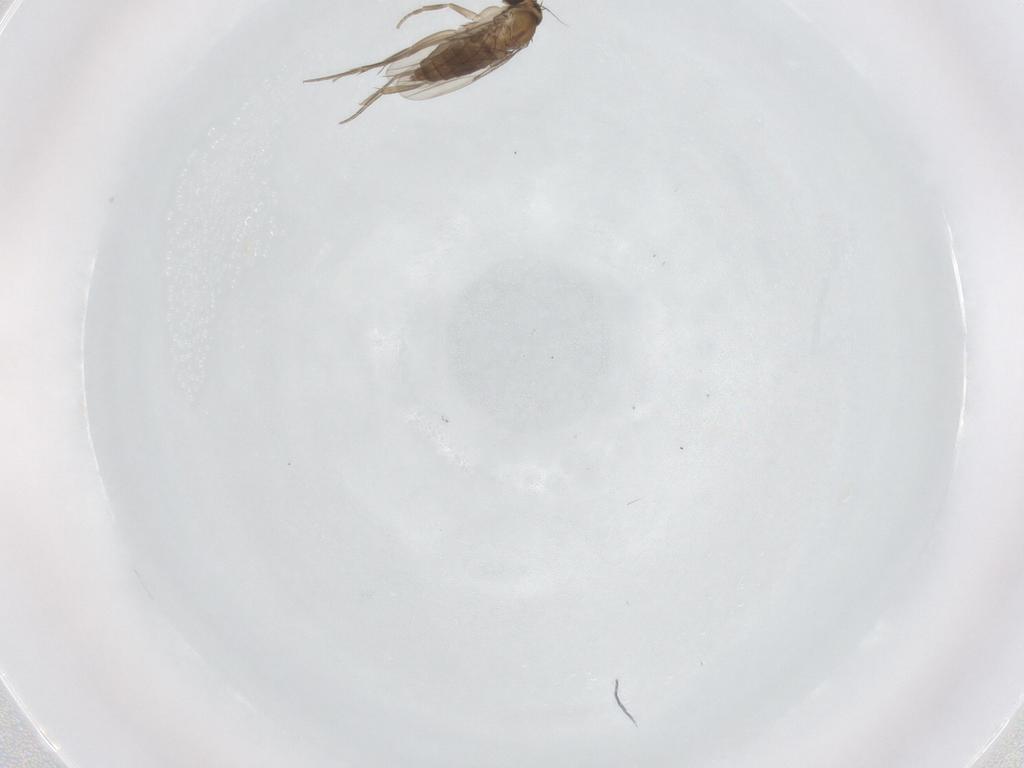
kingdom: Animalia
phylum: Arthropoda
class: Insecta
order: Diptera
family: Phoridae
